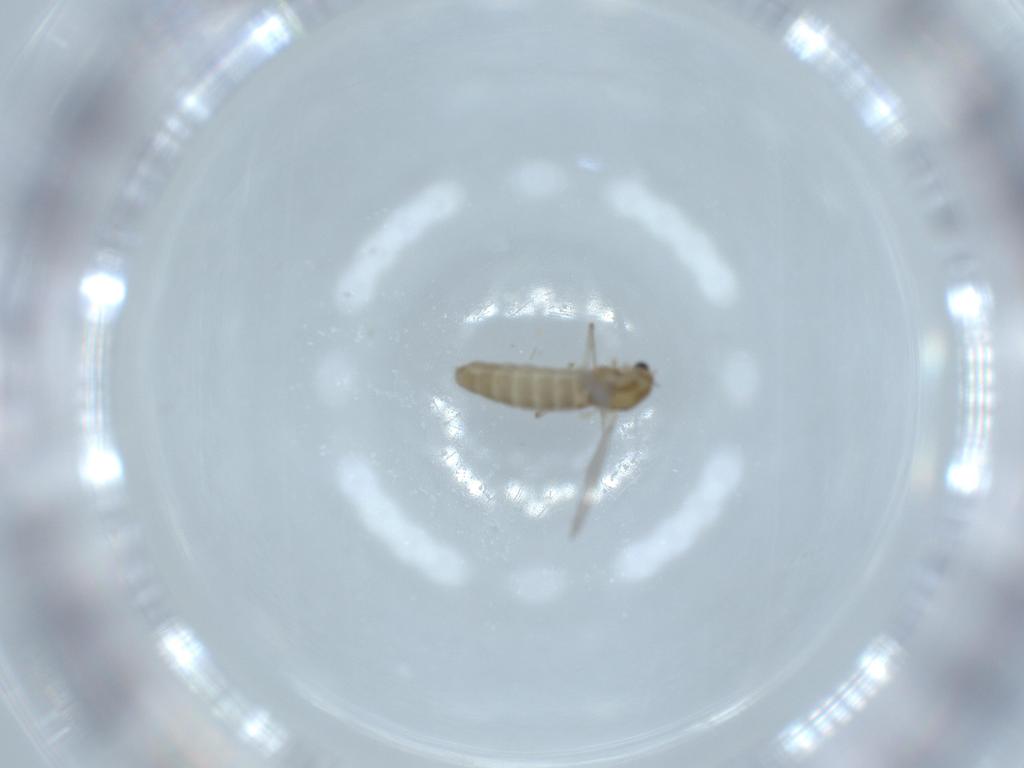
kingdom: Animalia
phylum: Arthropoda
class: Insecta
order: Diptera
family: Chironomidae
